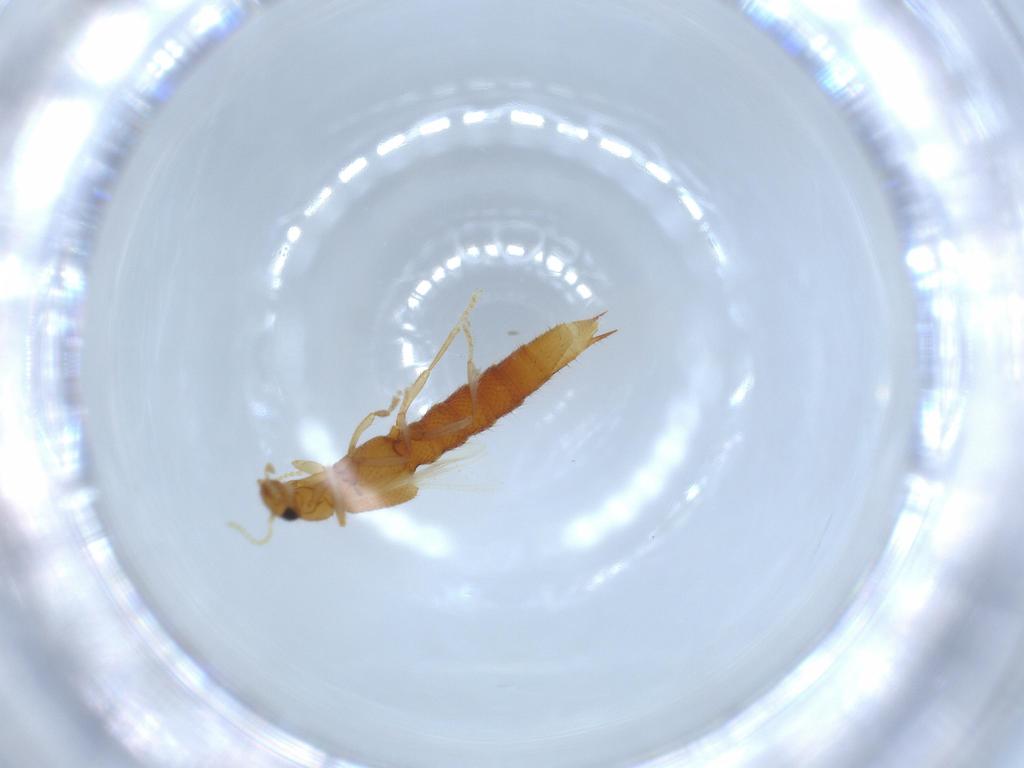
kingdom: Animalia
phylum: Arthropoda
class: Insecta
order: Coleoptera
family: Staphylinidae
